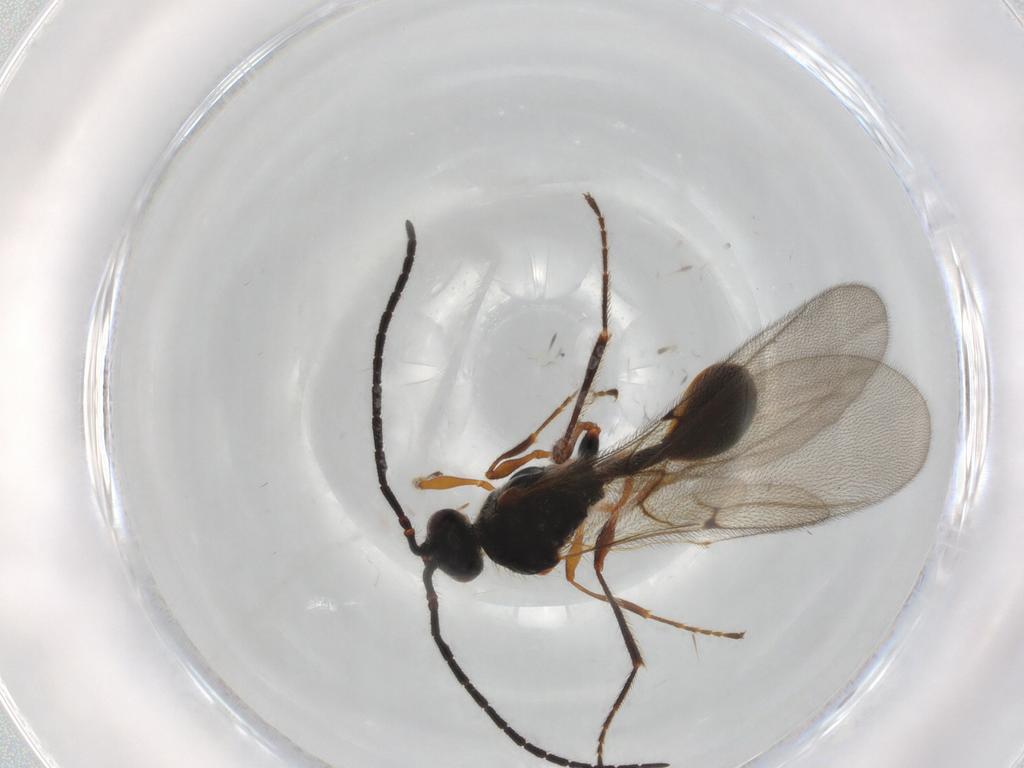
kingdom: Animalia
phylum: Arthropoda
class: Insecta
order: Hymenoptera
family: Diapriidae
